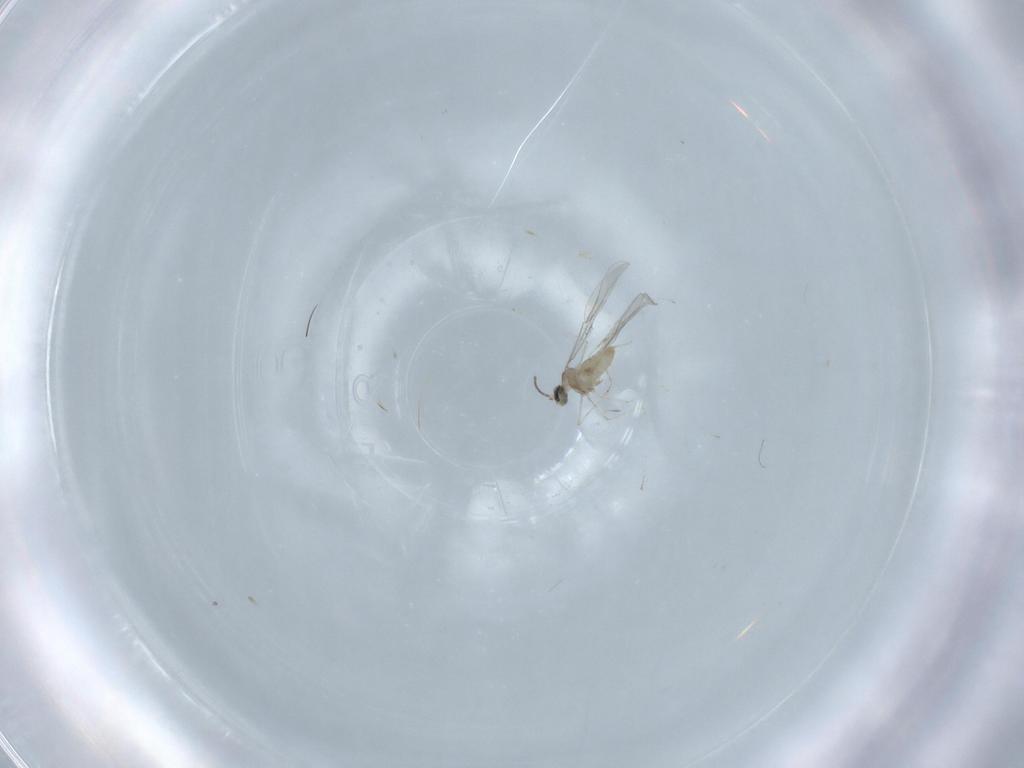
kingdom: Animalia
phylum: Arthropoda
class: Insecta
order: Diptera
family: Cecidomyiidae
